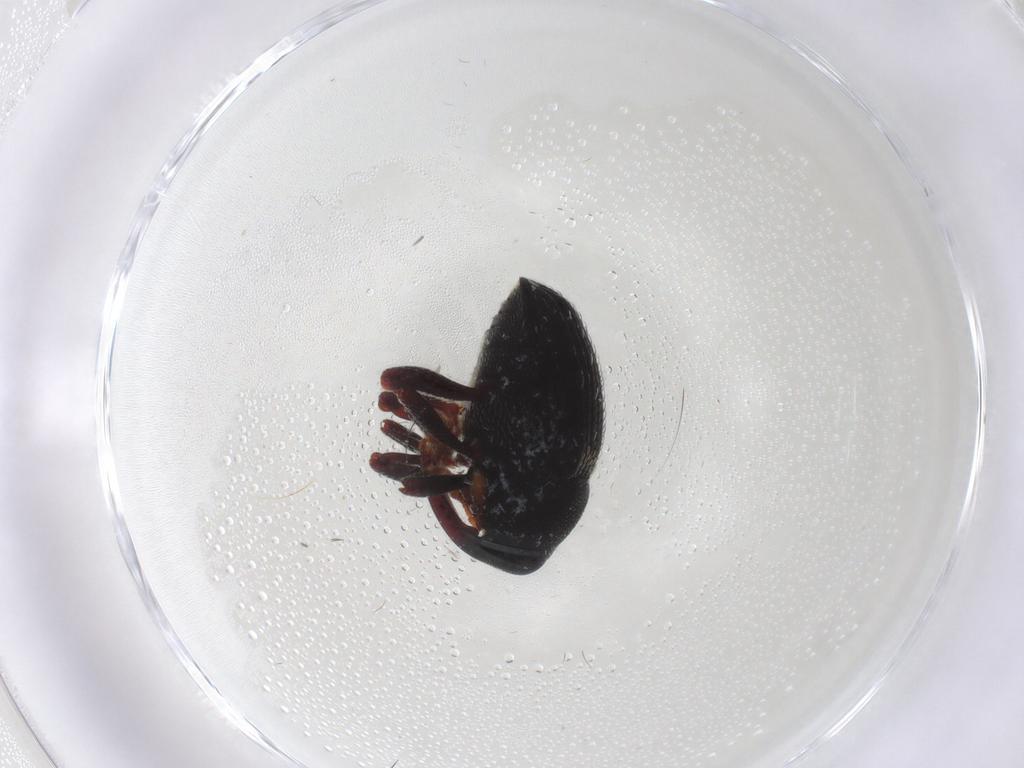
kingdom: Animalia
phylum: Arthropoda
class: Insecta
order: Coleoptera
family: Curculionidae
